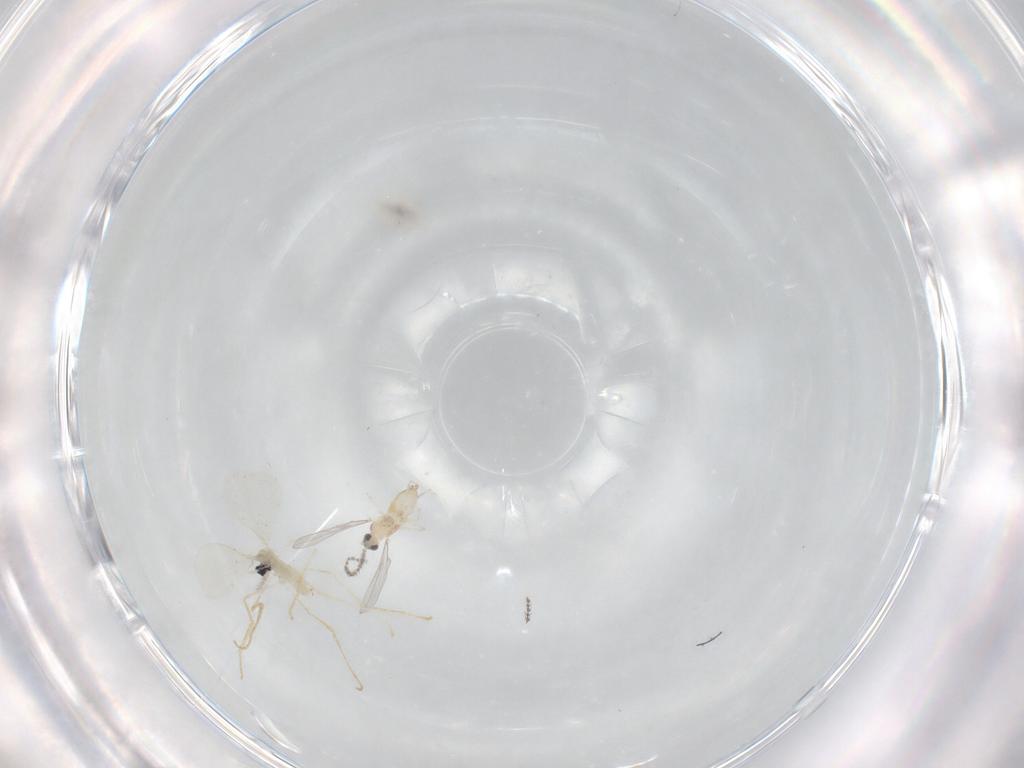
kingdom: Animalia
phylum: Arthropoda
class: Insecta
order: Diptera
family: Cecidomyiidae
